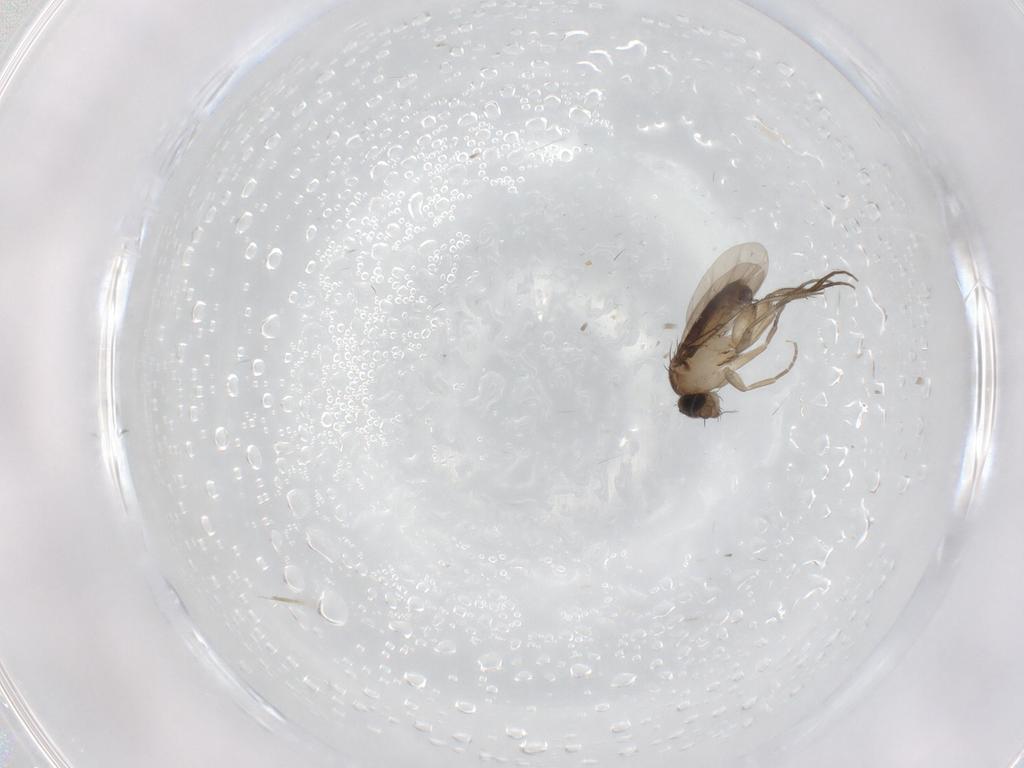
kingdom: Animalia
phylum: Arthropoda
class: Insecta
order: Diptera
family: Phoridae
